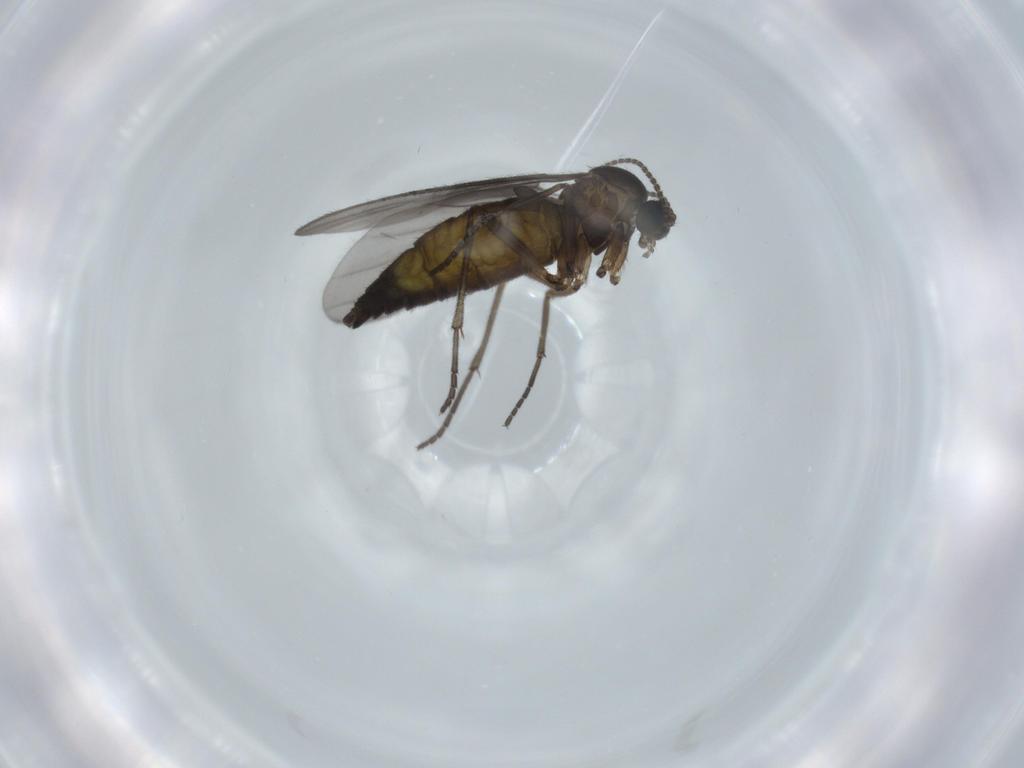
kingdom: Animalia
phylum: Arthropoda
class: Insecta
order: Diptera
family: Sciaridae
